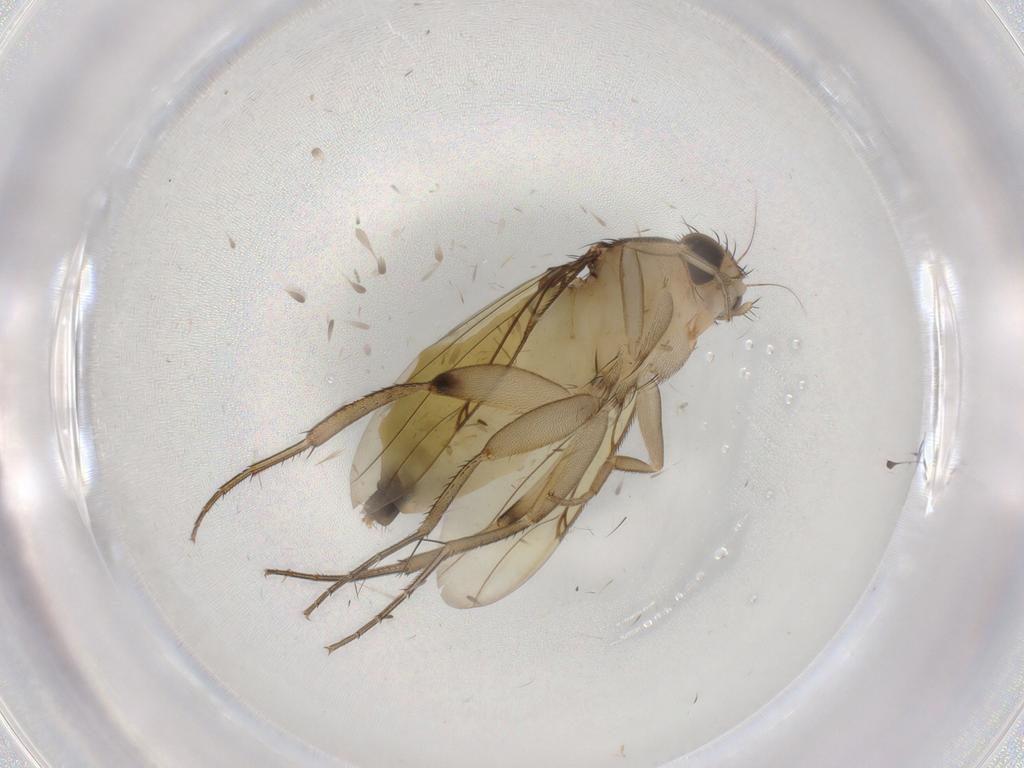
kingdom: Animalia
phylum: Arthropoda
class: Insecta
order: Diptera
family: Phoridae
